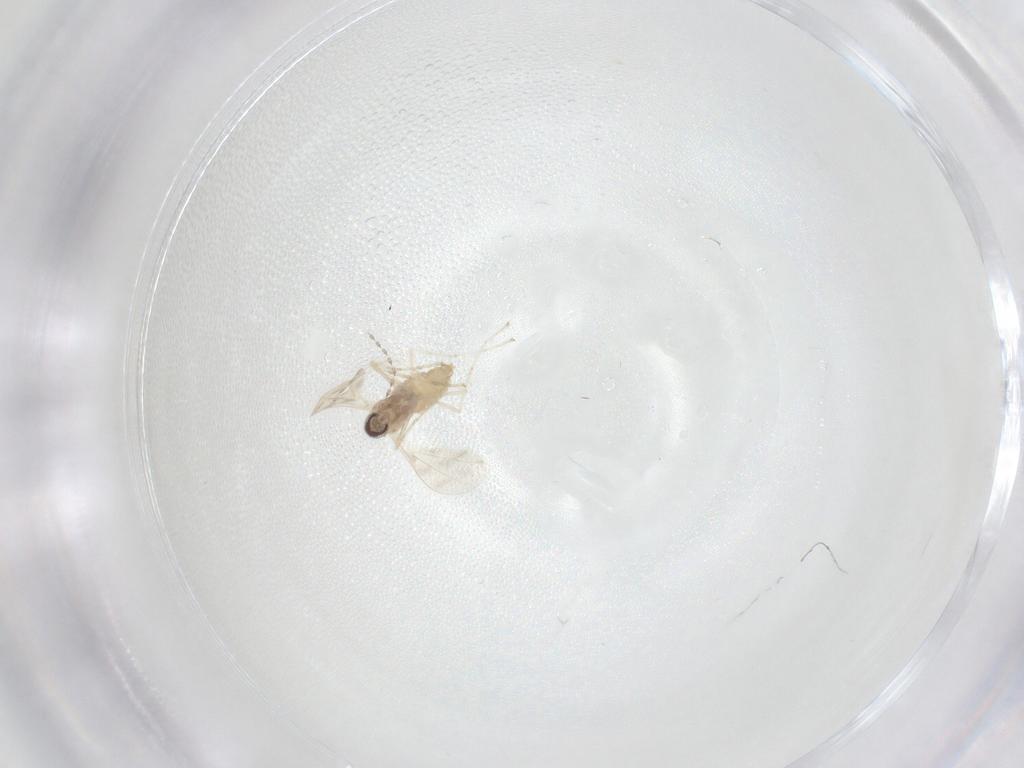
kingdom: Animalia
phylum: Arthropoda
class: Insecta
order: Diptera
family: Cecidomyiidae
